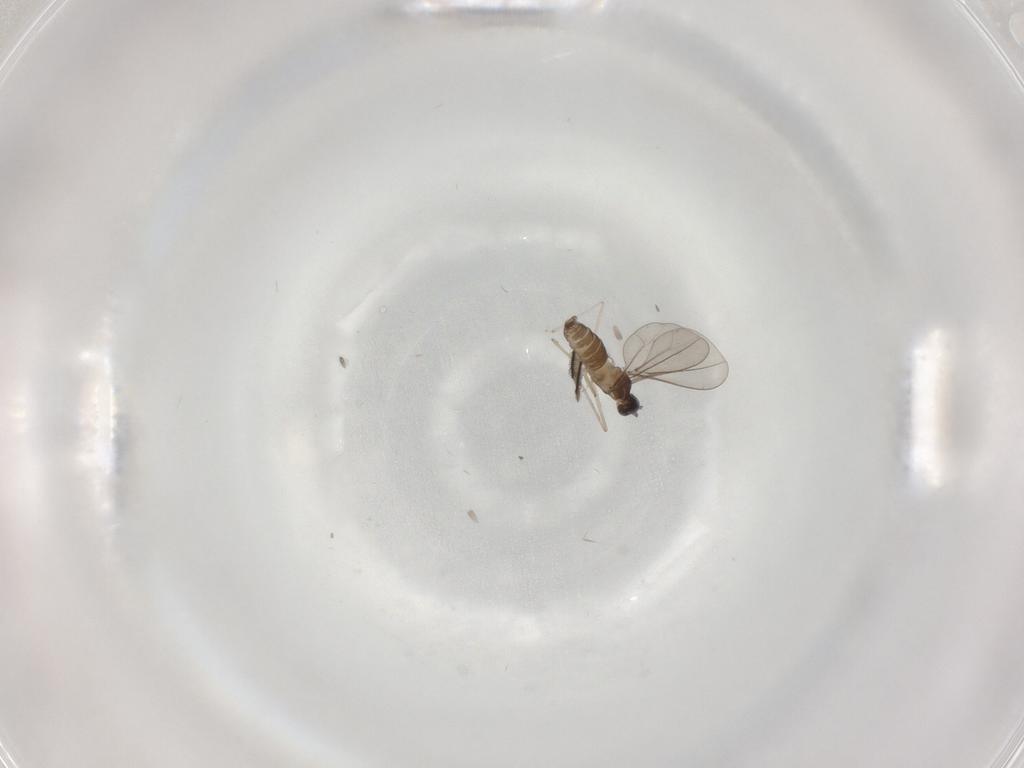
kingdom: Animalia
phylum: Arthropoda
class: Insecta
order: Diptera
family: Cecidomyiidae
